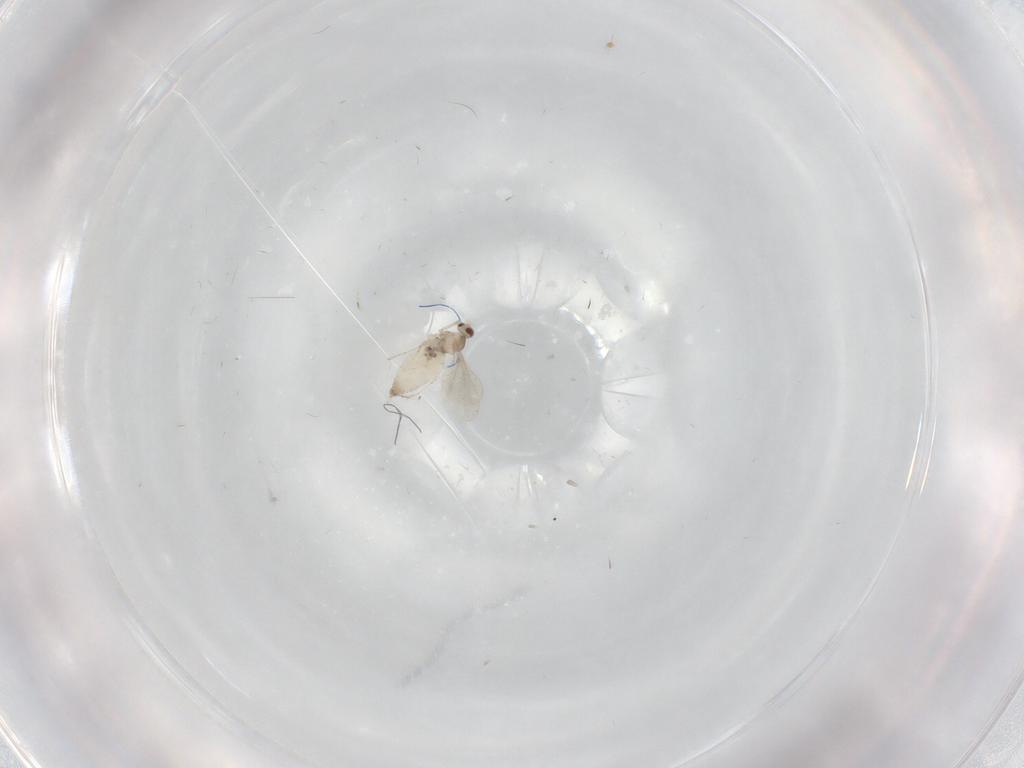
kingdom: Animalia
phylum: Arthropoda
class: Insecta
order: Diptera
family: Cecidomyiidae
